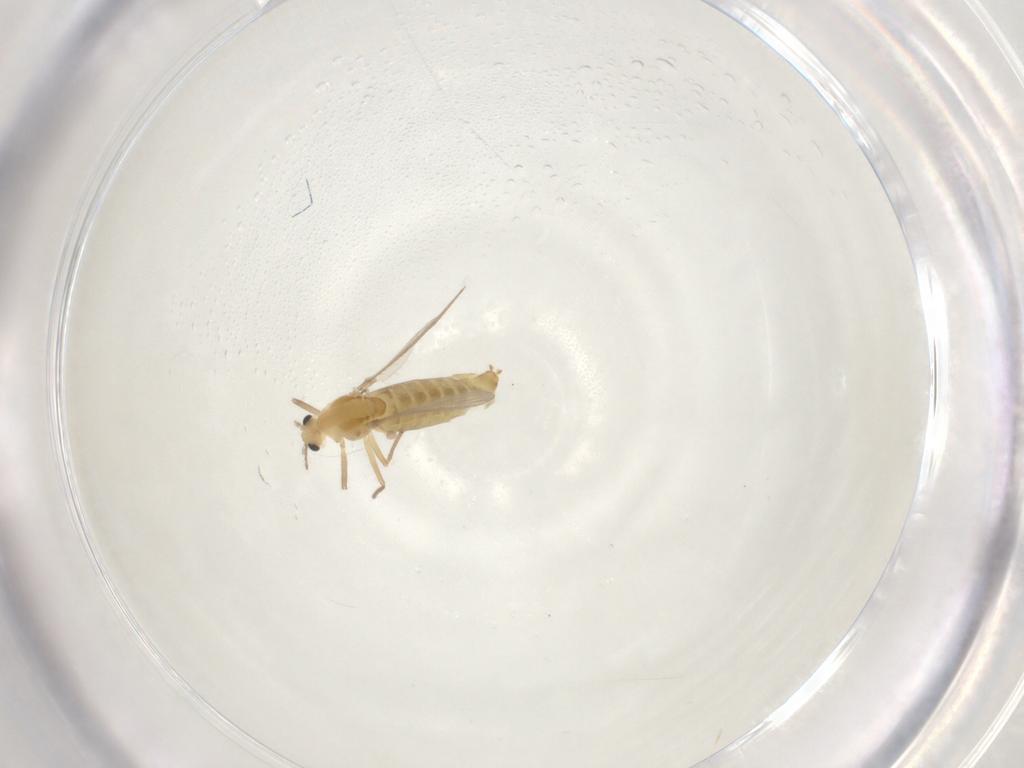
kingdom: Animalia
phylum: Arthropoda
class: Insecta
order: Diptera
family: Chironomidae
